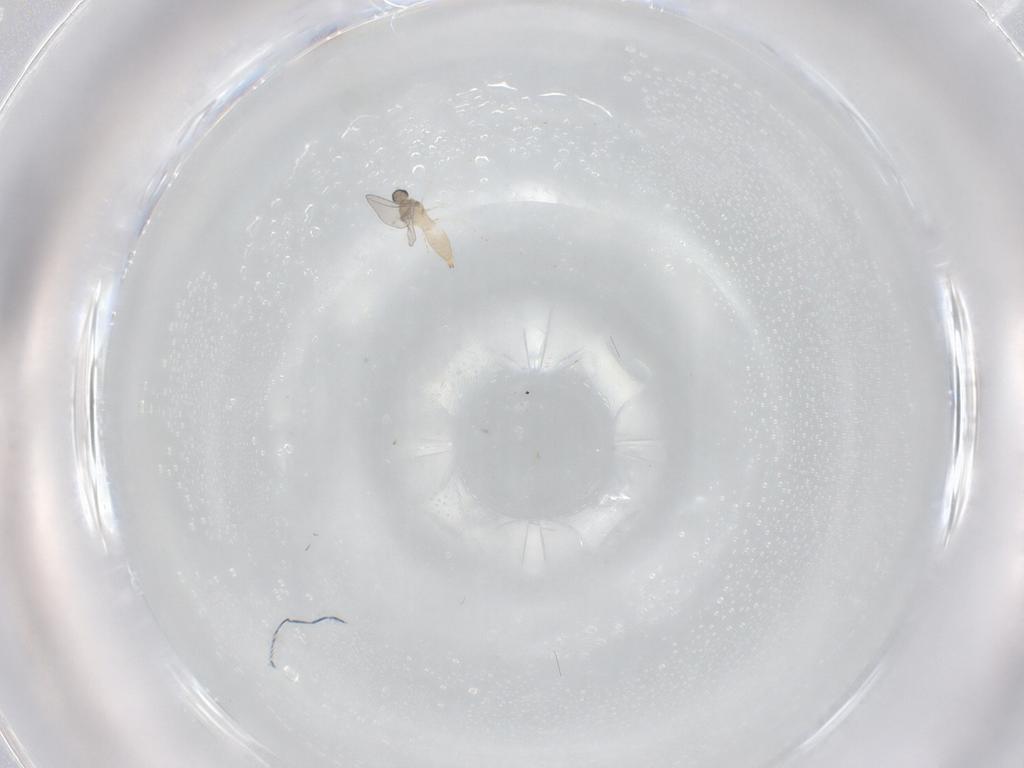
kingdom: Animalia
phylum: Arthropoda
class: Insecta
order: Diptera
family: Cecidomyiidae
